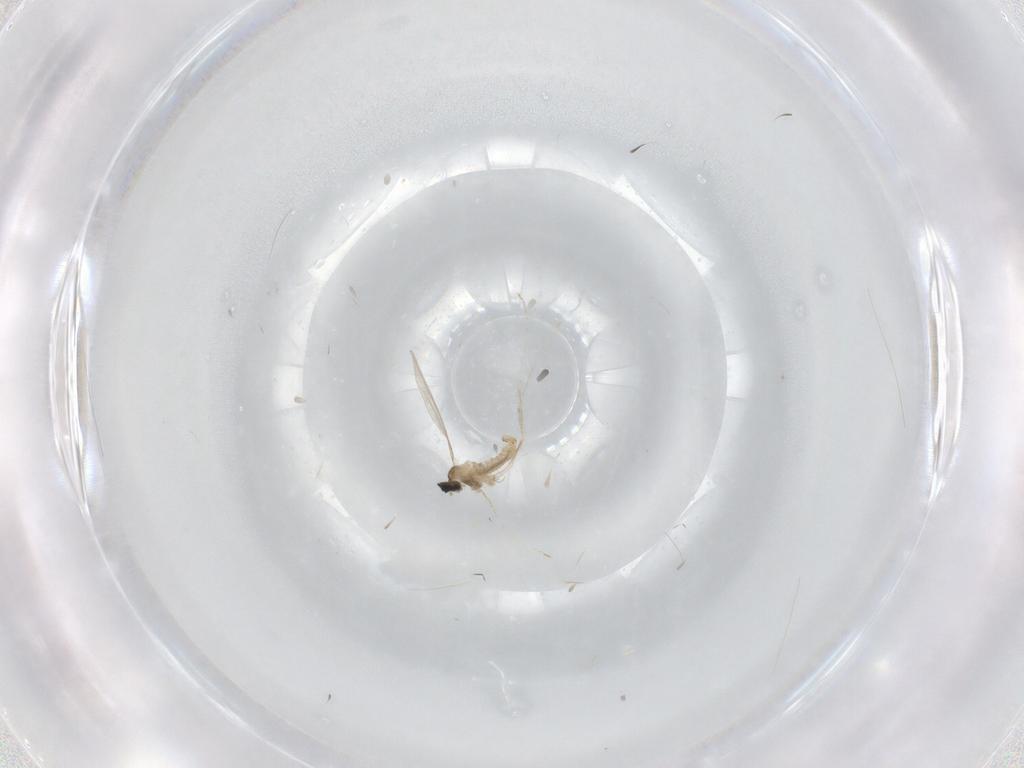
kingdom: Animalia
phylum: Arthropoda
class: Insecta
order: Diptera
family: Cecidomyiidae
